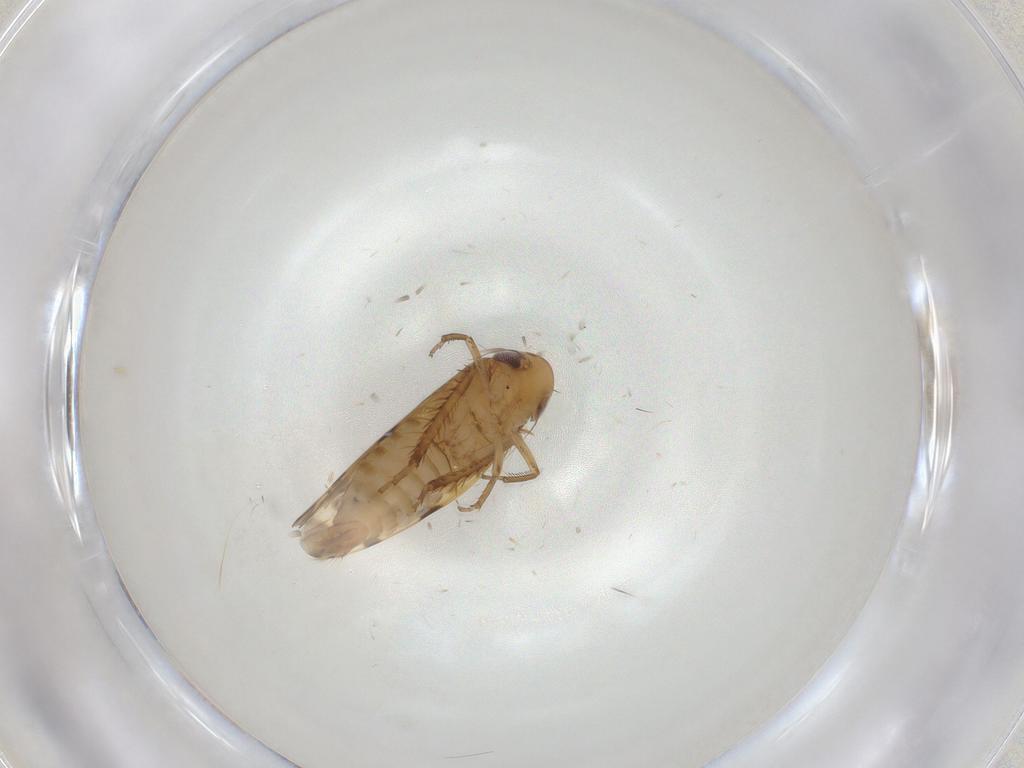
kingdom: Animalia
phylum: Arthropoda
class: Insecta
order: Hemiptera
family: Cicadellidae
